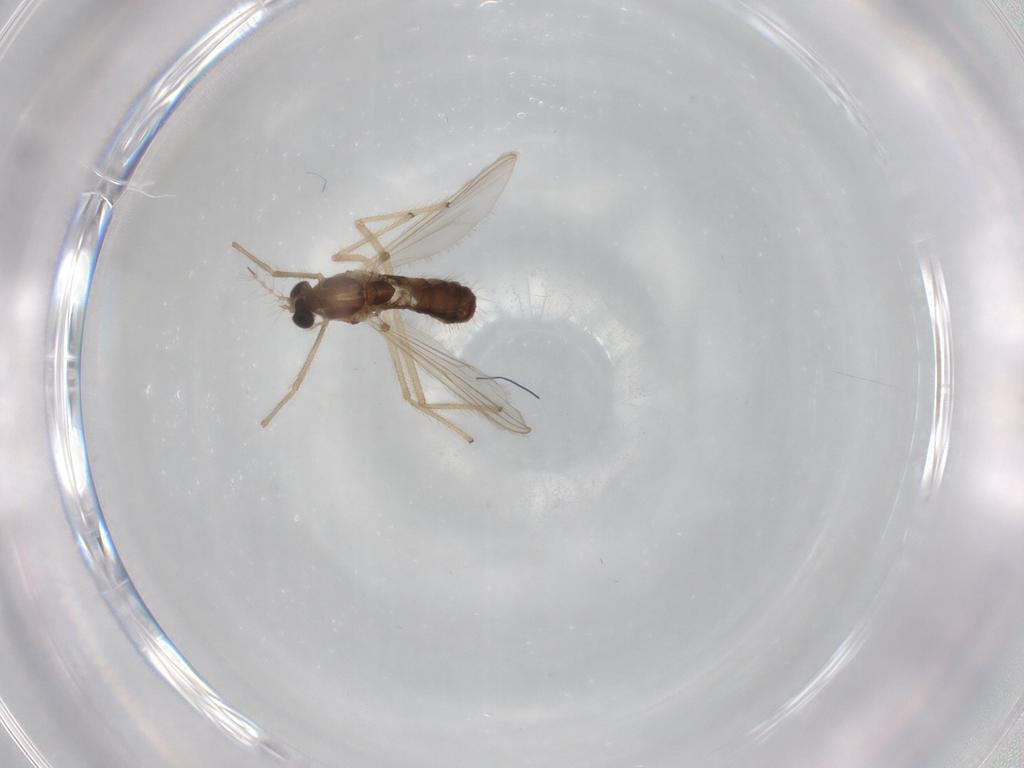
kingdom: Animalia
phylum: Arthropoda
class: Insecta
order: Diptera
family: Chironomidae
